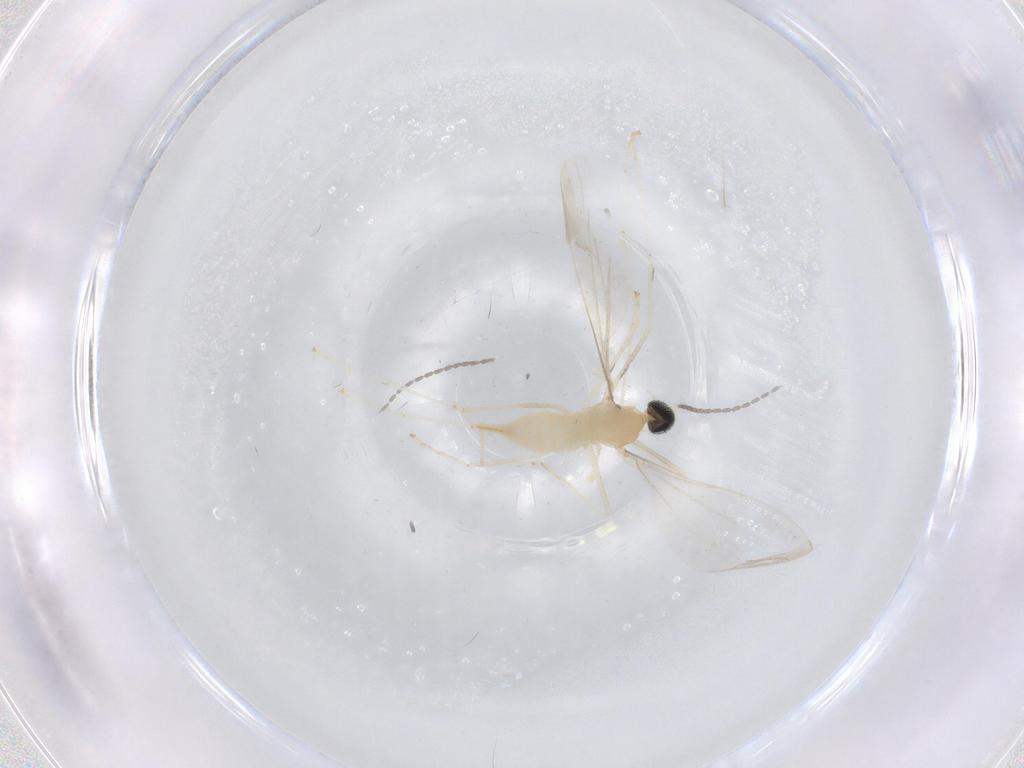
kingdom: Animalia
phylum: Arthropoda
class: Insecta
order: Diptera
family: Cecidomyiidae
